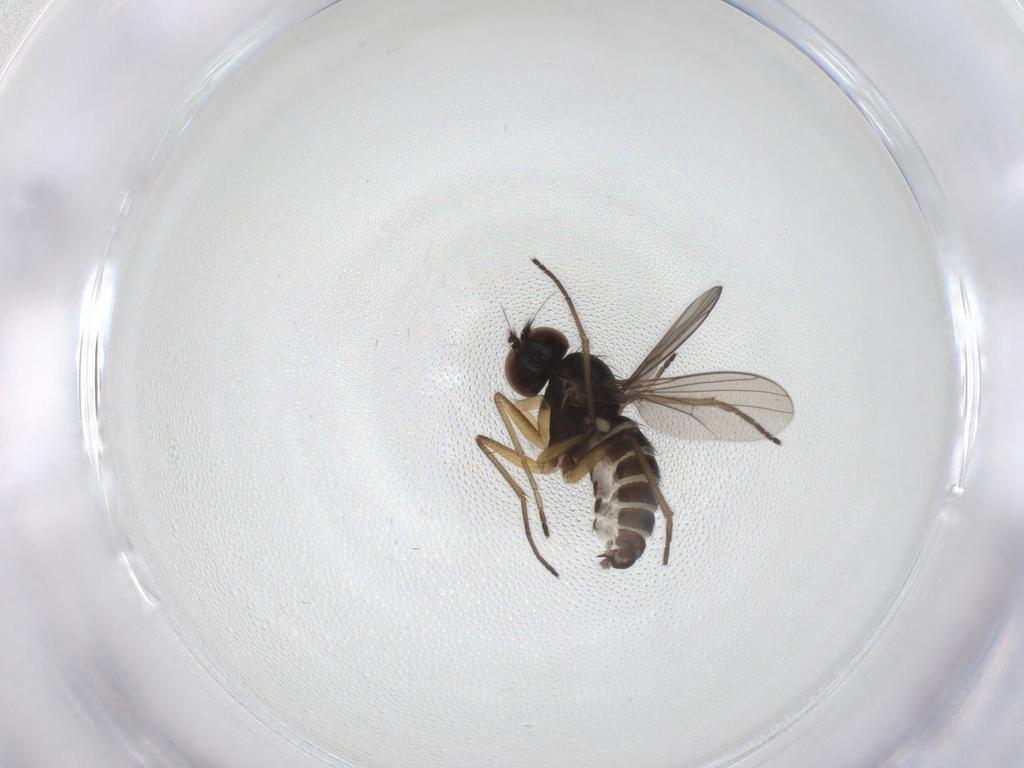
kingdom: Animalia
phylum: Arthropoda
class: Insecta
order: Diptera
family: Dolichopodidae
